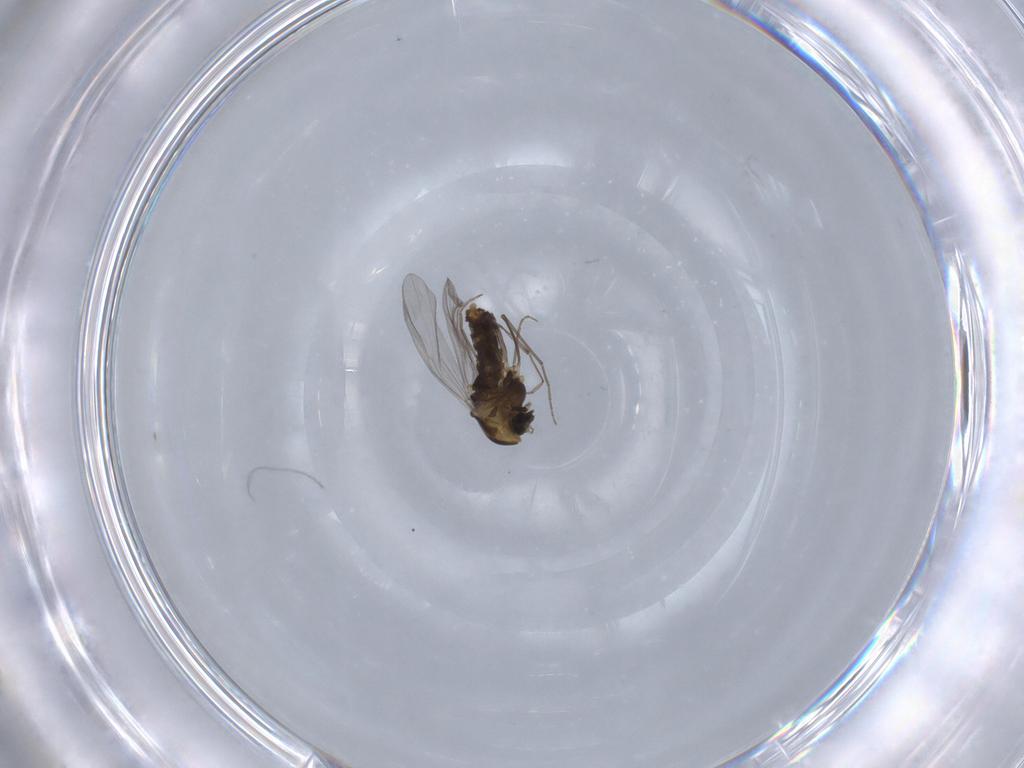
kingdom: Animalia
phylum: Arthropoda
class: Insecta
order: Diptera
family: Chironomidae
